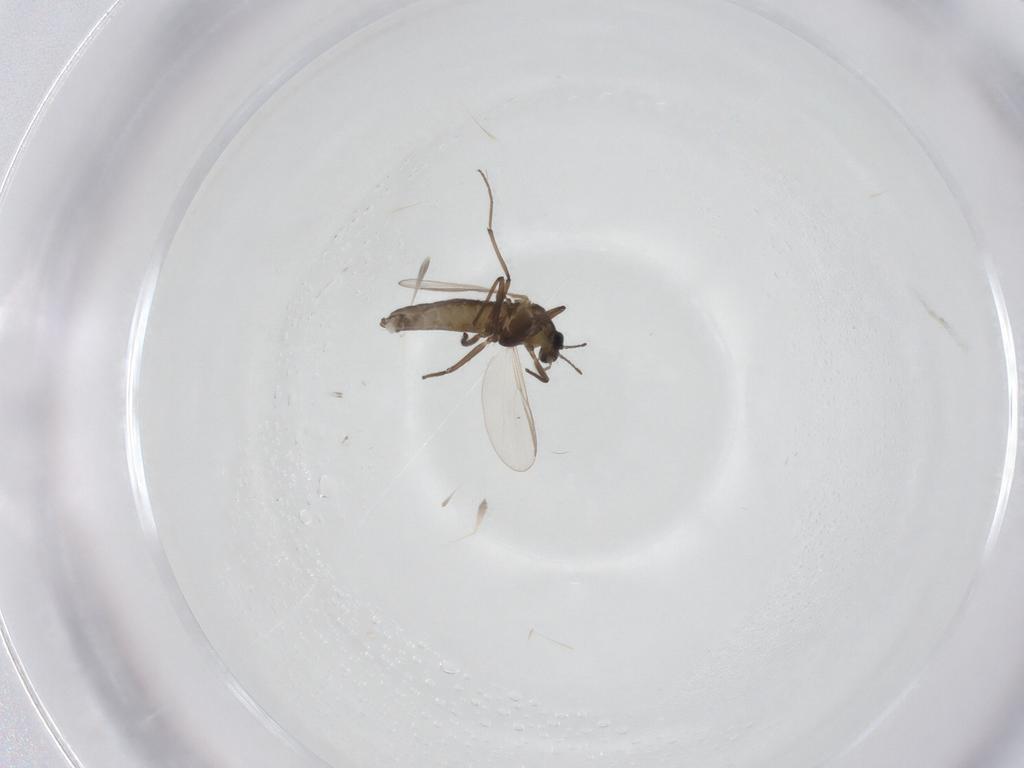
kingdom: Animalia
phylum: Arthropoda
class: Insecta
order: Diptera
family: Chironomidae
